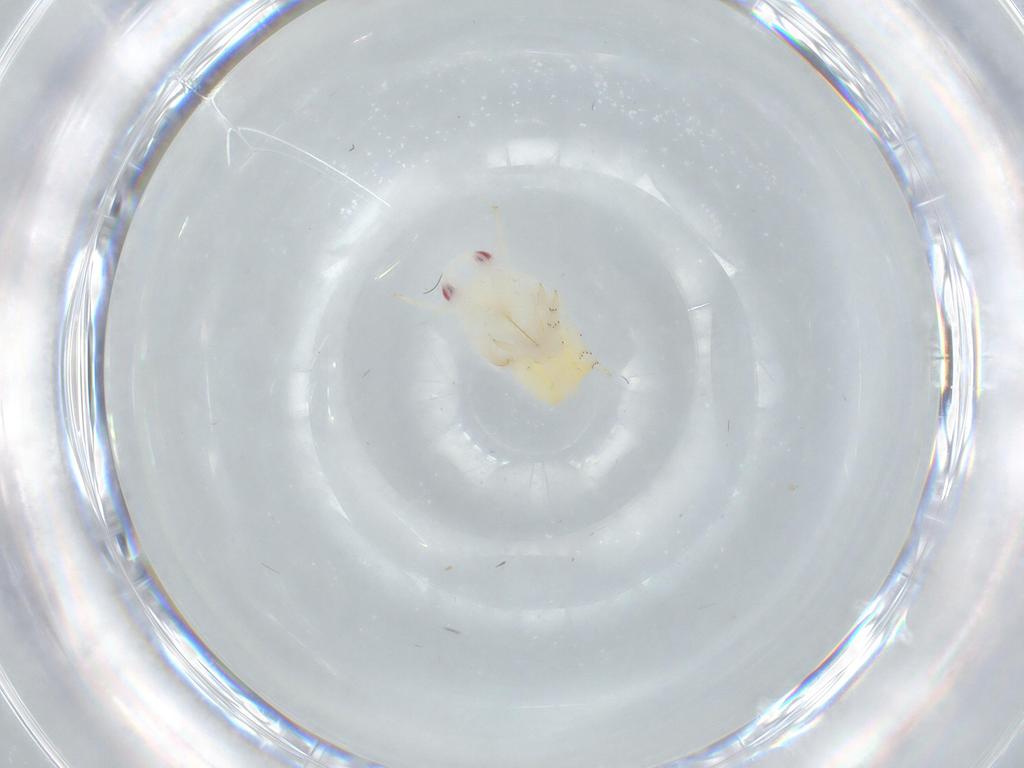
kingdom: Animalia
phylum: Arthropoda
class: Insecta
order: Hemiptera
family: Flatidae
